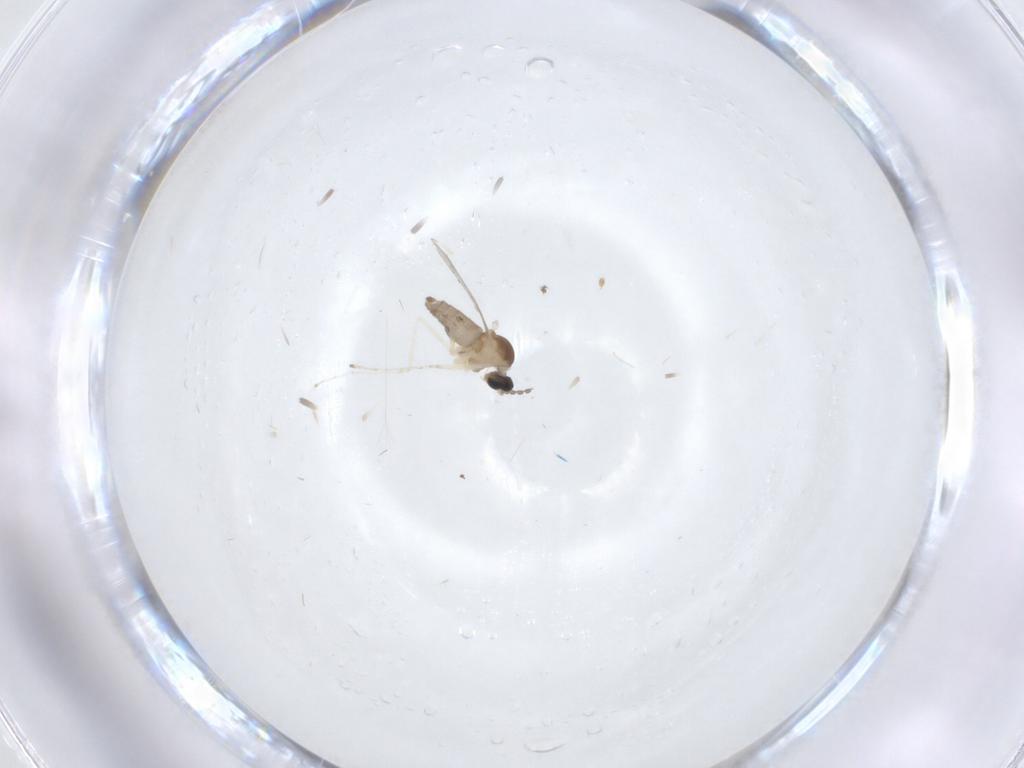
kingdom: Animalia
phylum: Arthropoda
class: Insecta
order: Diptera
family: Cecidomyiidae
